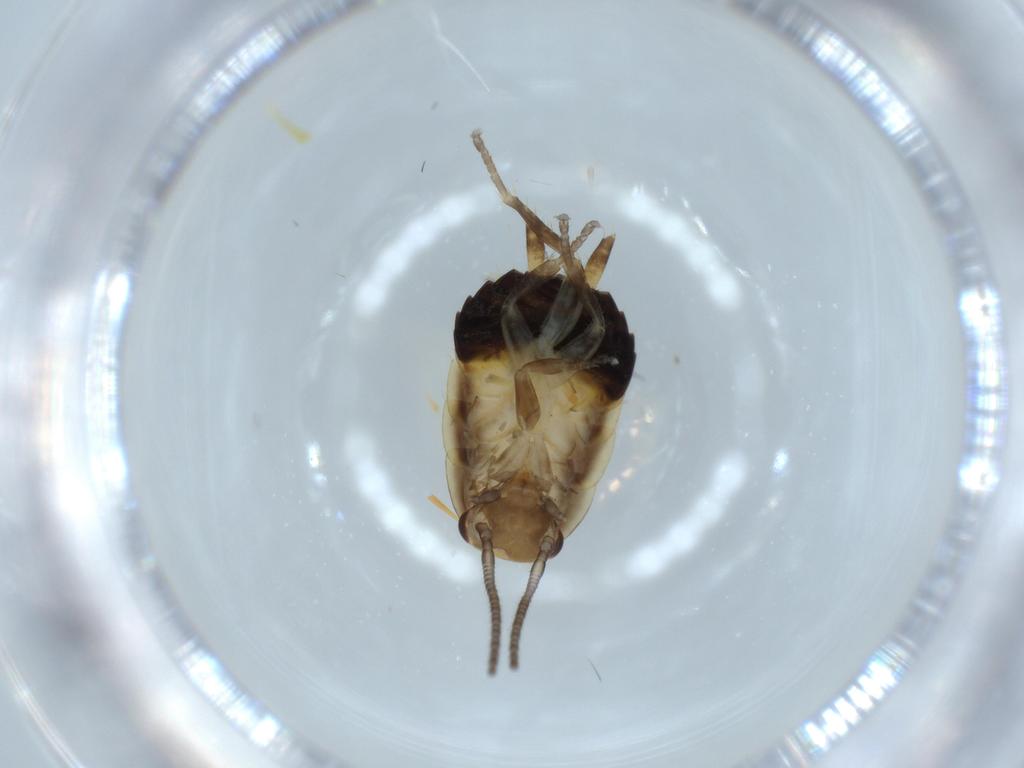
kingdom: Animalia
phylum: Arthropoda
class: Insecta
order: Blattodea
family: Ectobiidae
